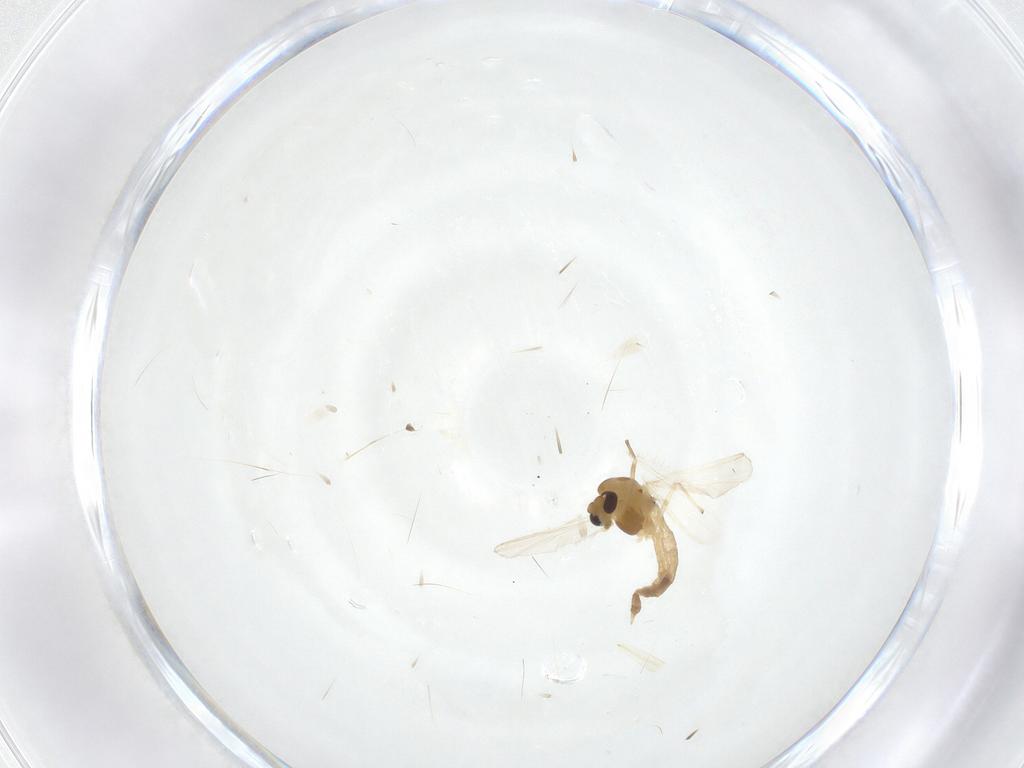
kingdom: Animalia
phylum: Arthropoda
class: Insecta
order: Diptera
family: Chironomidae
